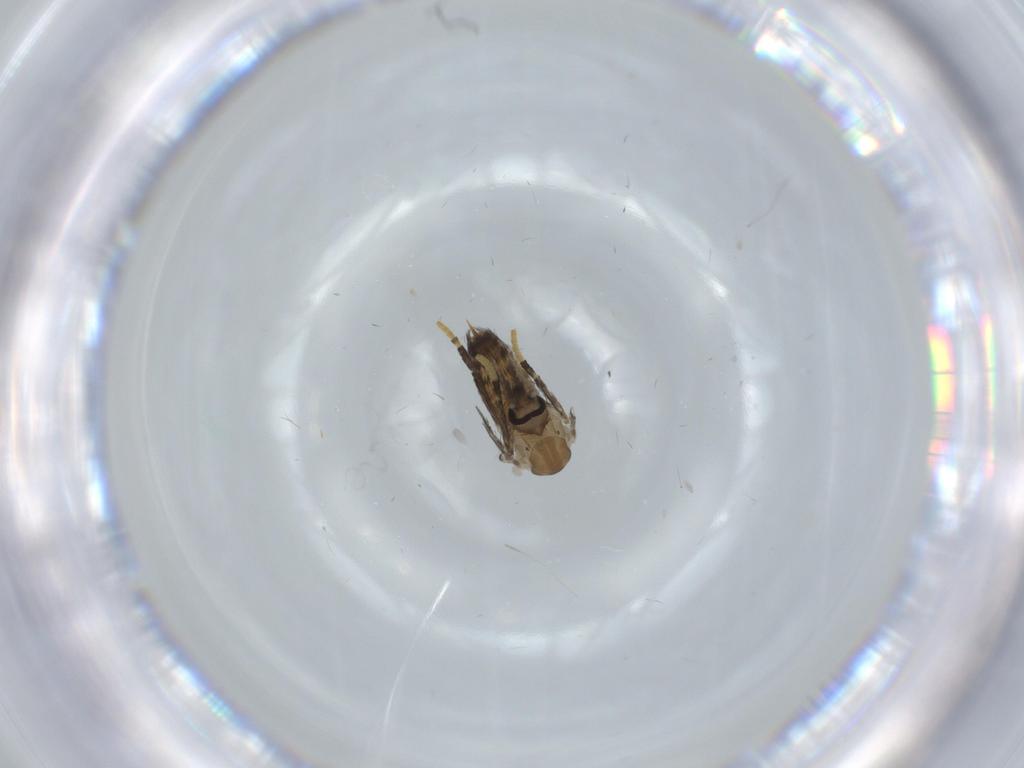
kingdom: Animalia
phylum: Arthropoda
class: Insecta
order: Diptera
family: Psychodidae
